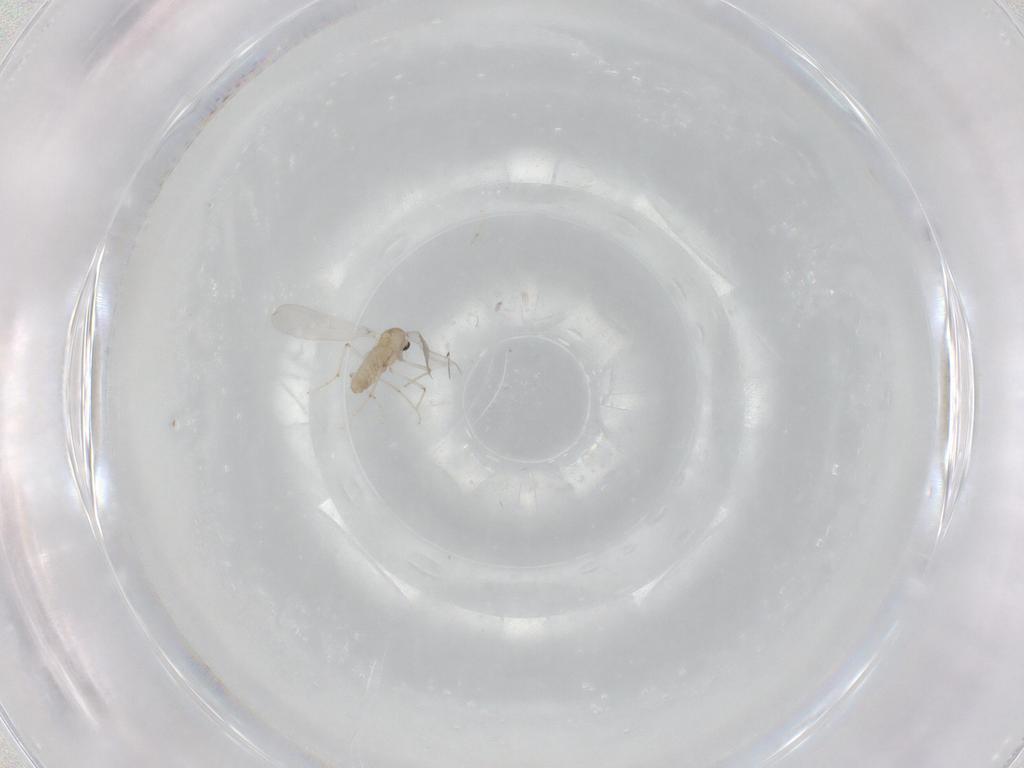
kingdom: Animalia
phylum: Arthropoda
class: Insecta
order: Diptera
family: Chironomidae
